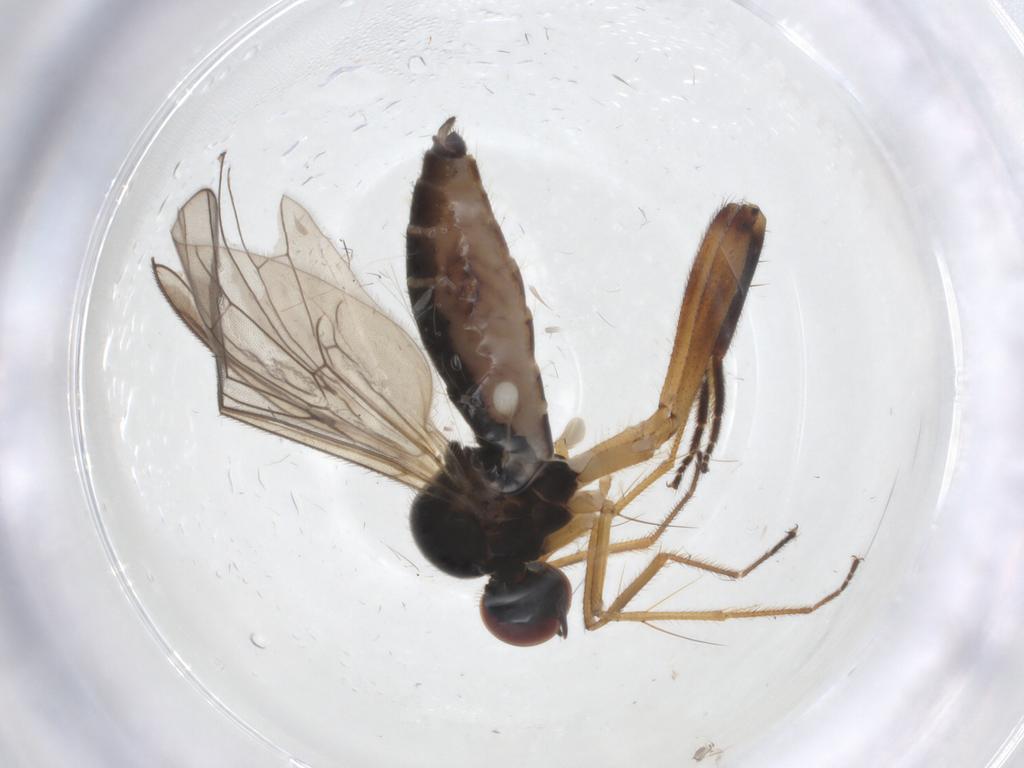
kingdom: Animalia
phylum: Arthropoda
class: Insecta
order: Diptera
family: Hybotidae
